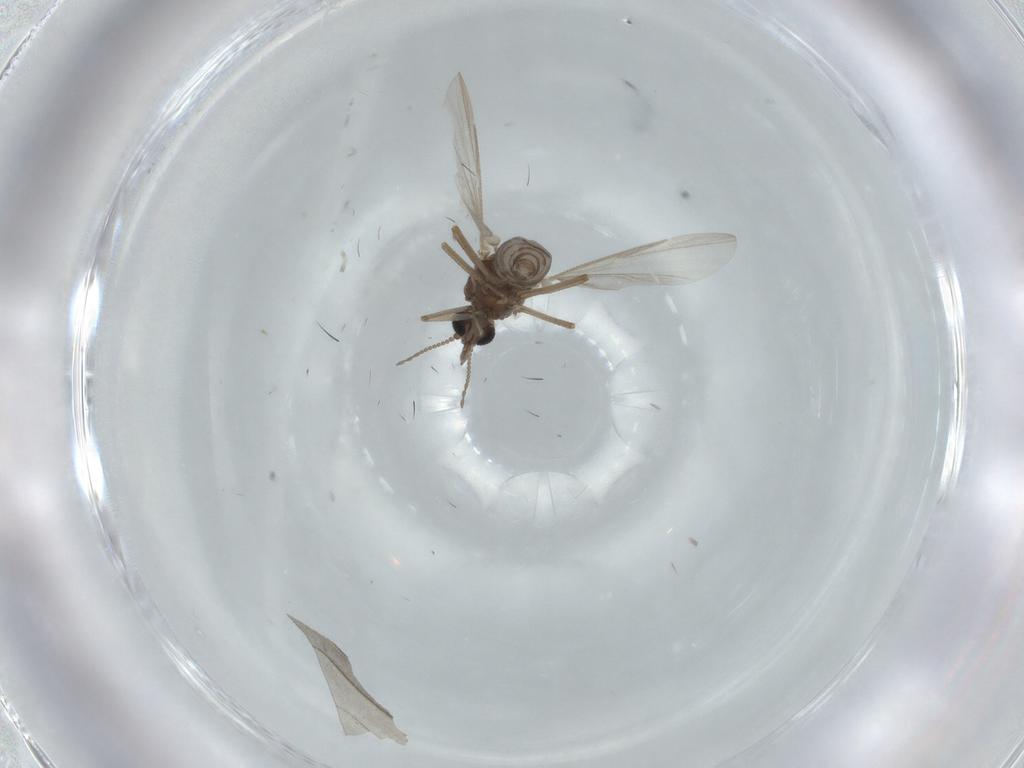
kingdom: Animalia
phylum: Arthropoda
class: Insecta
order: Diptera
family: Ceratopogonidae
